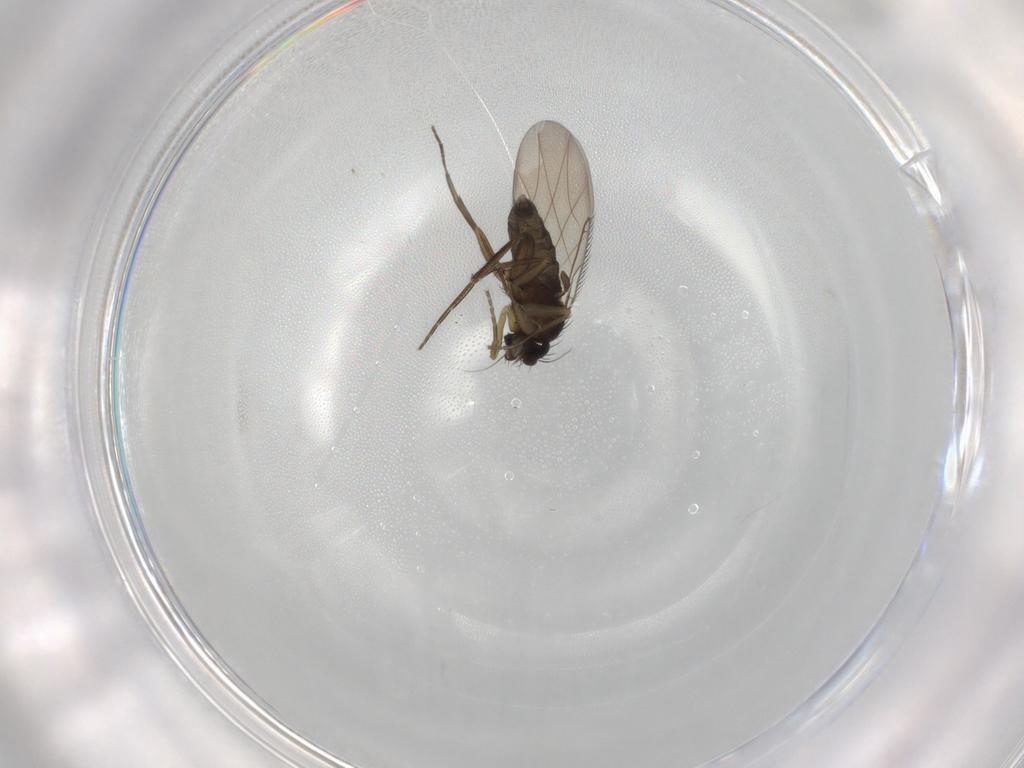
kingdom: Animalia
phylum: Arthropoda
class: Insecta
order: Diptera
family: Phoridae
